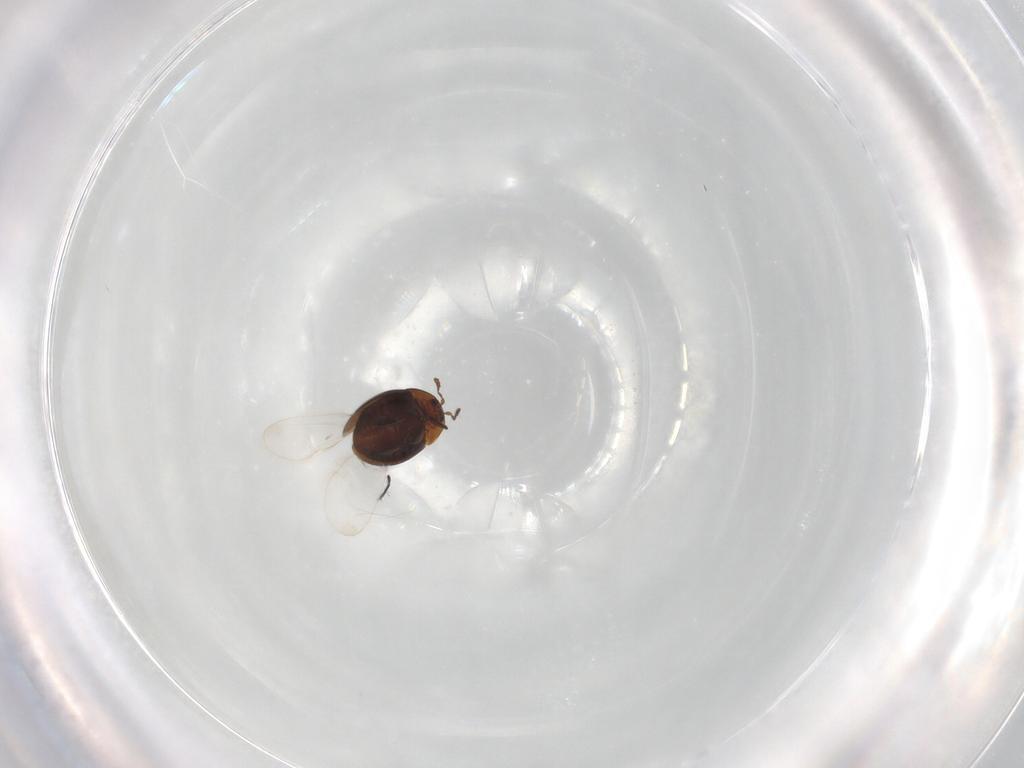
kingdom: Animalia
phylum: Arthropoda
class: Insecta
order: Coleoptera
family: Corylophidae
